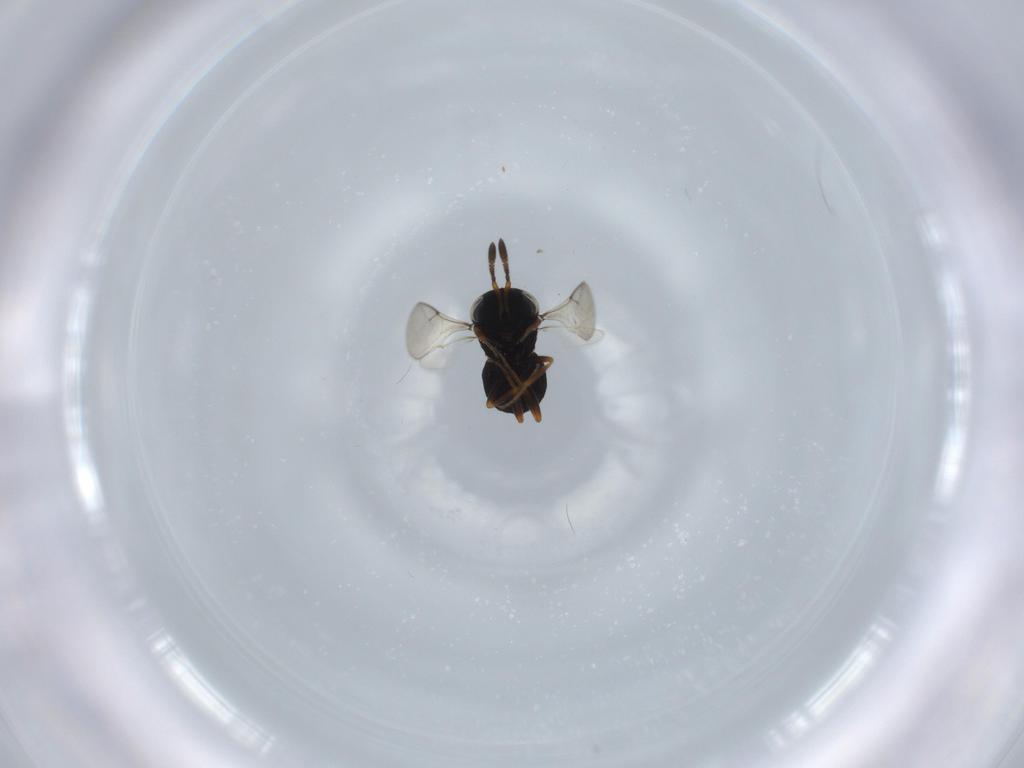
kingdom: Animalia
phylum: Arthropoda
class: Insecta
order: Hymenoptera
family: Scelionidae
